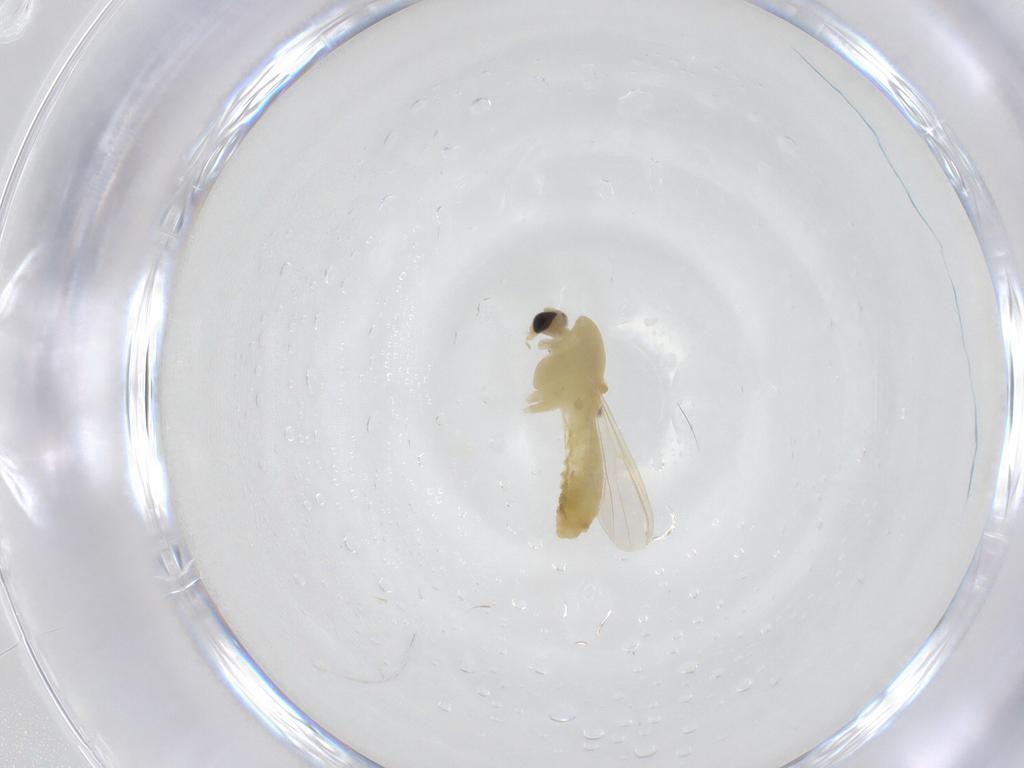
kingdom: Animalia
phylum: Arthropoda
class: Insecta
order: Diptera
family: Chironomidae
